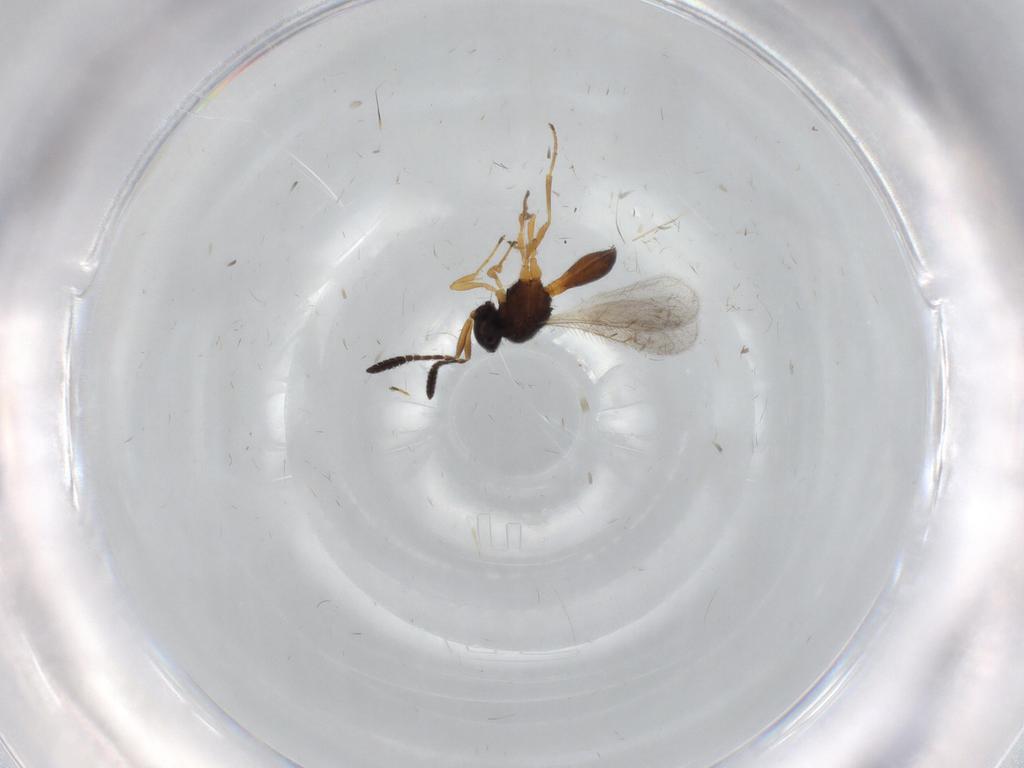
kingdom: Animalia
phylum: Arthropoda
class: Insecta
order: Hymenoptera
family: Scelionidae
